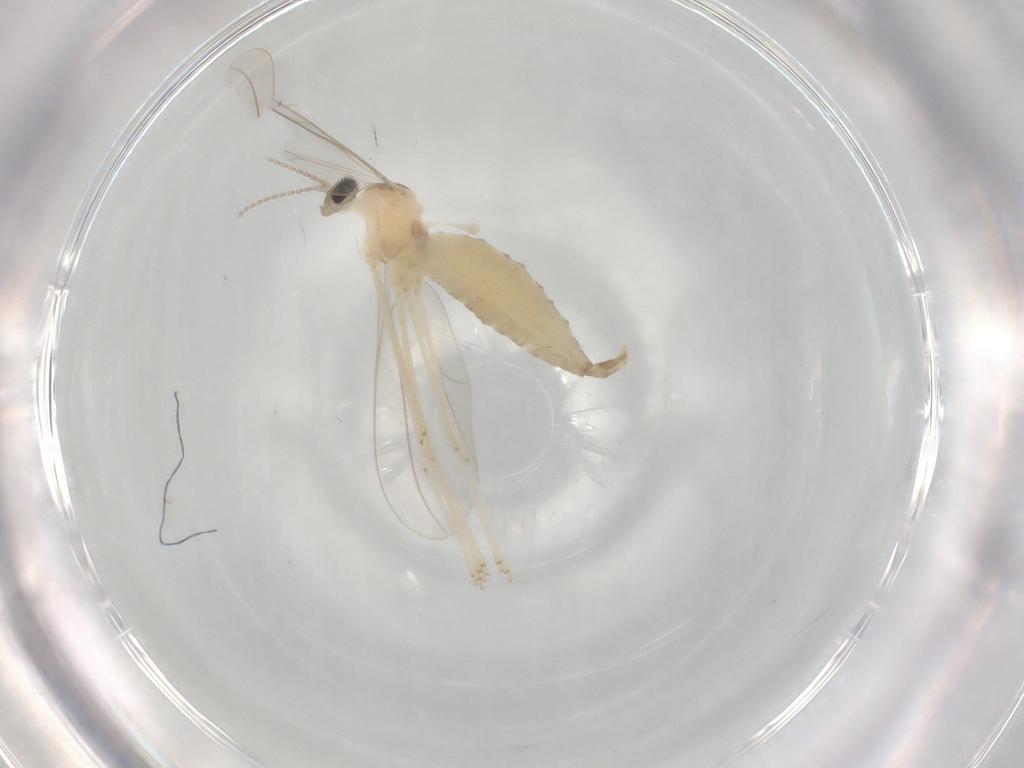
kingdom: Animalia
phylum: Arthropoda
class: Insecta
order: Diptera
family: Cecidomyiidae
